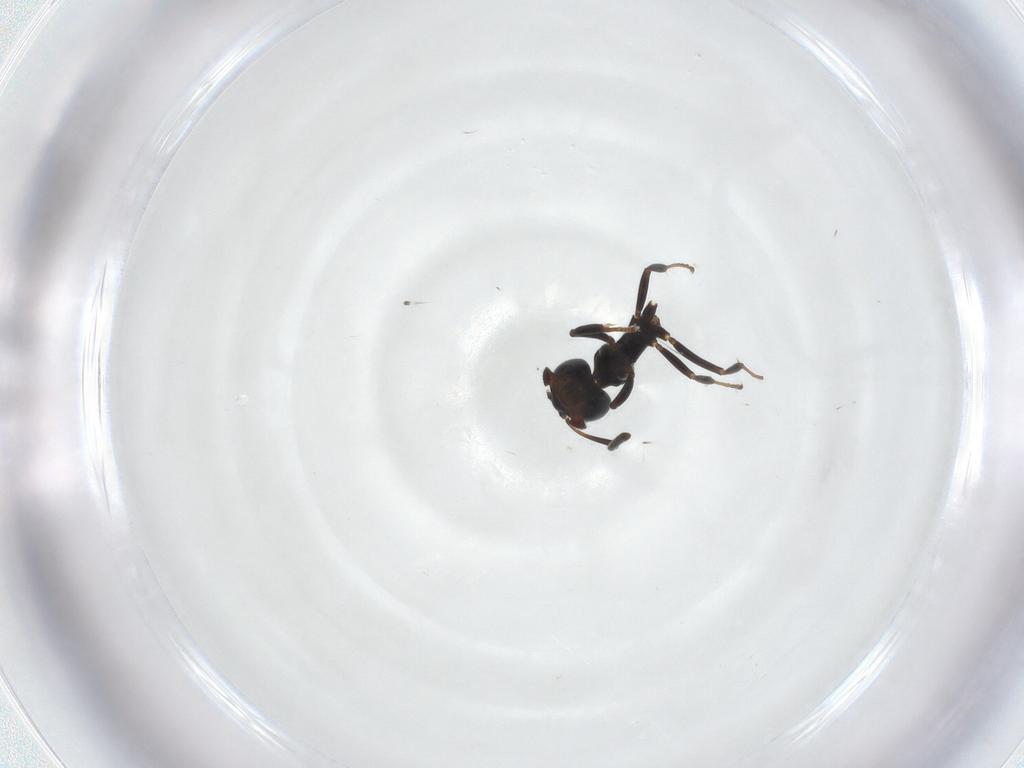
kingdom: Animalia
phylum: Arthropoda
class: Insecta
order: Hymenoptera
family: Formicidae
